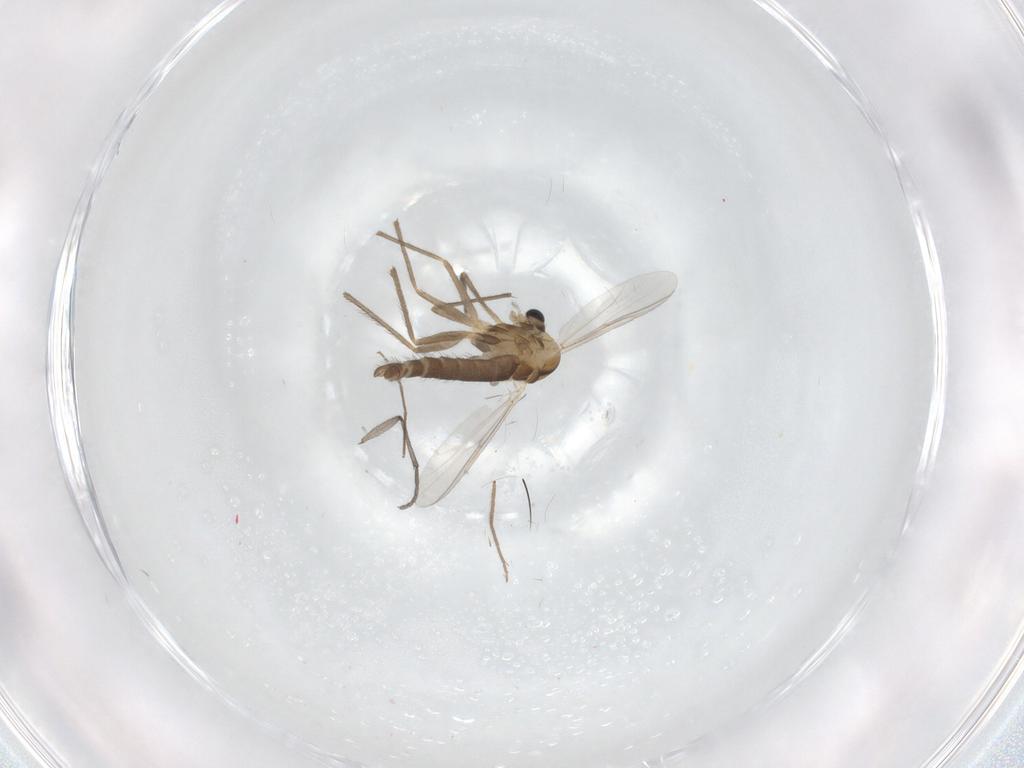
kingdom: Animalia
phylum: Arthropoda
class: Insecta
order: Diptera
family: Chironomidae
